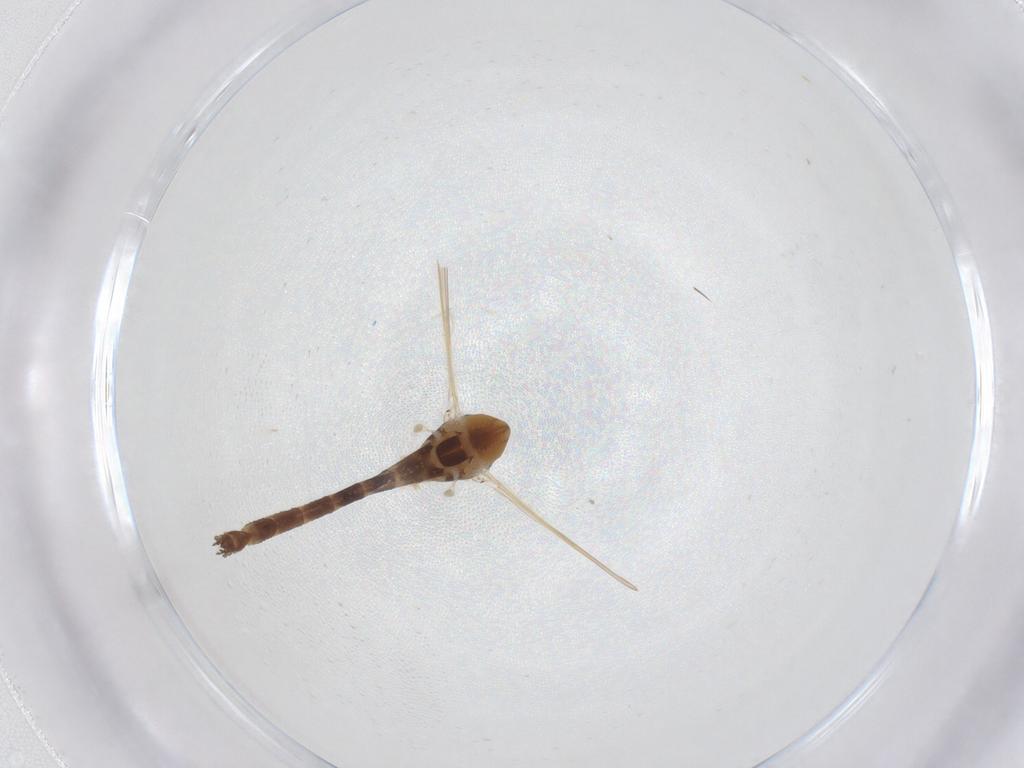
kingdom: Animalia
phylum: Arthropoda
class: Insecta
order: Diptera
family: Chironomidae
